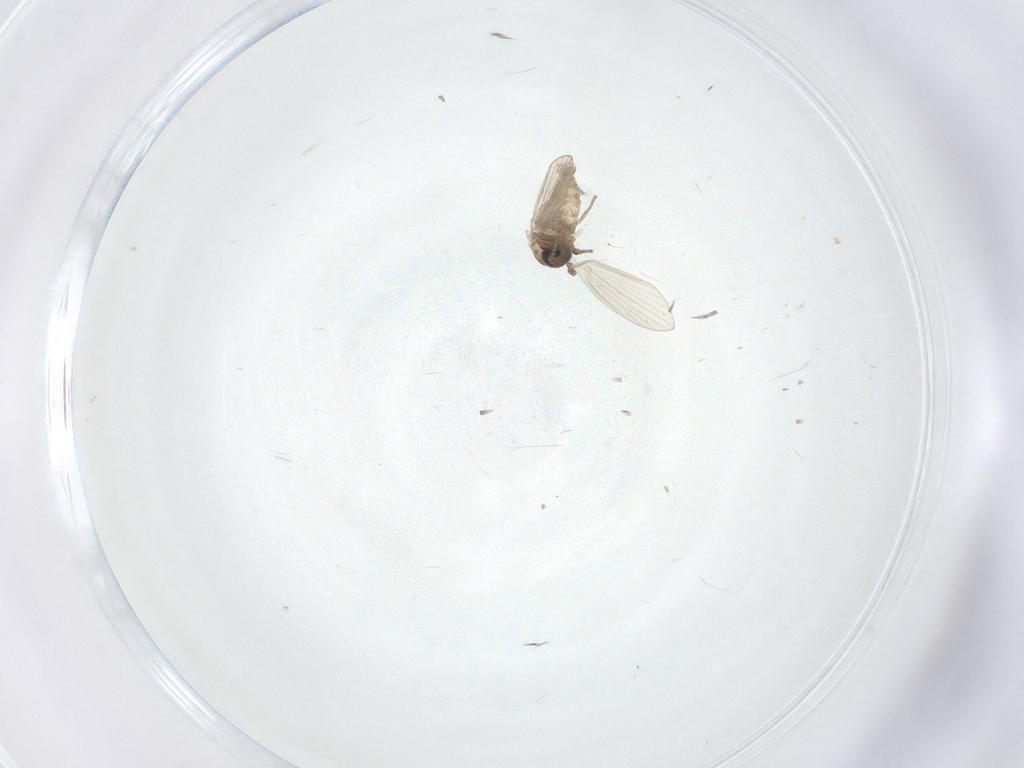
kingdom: Animalia
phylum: Arthropoda
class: Insecta
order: Diptera
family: Psychodidae
